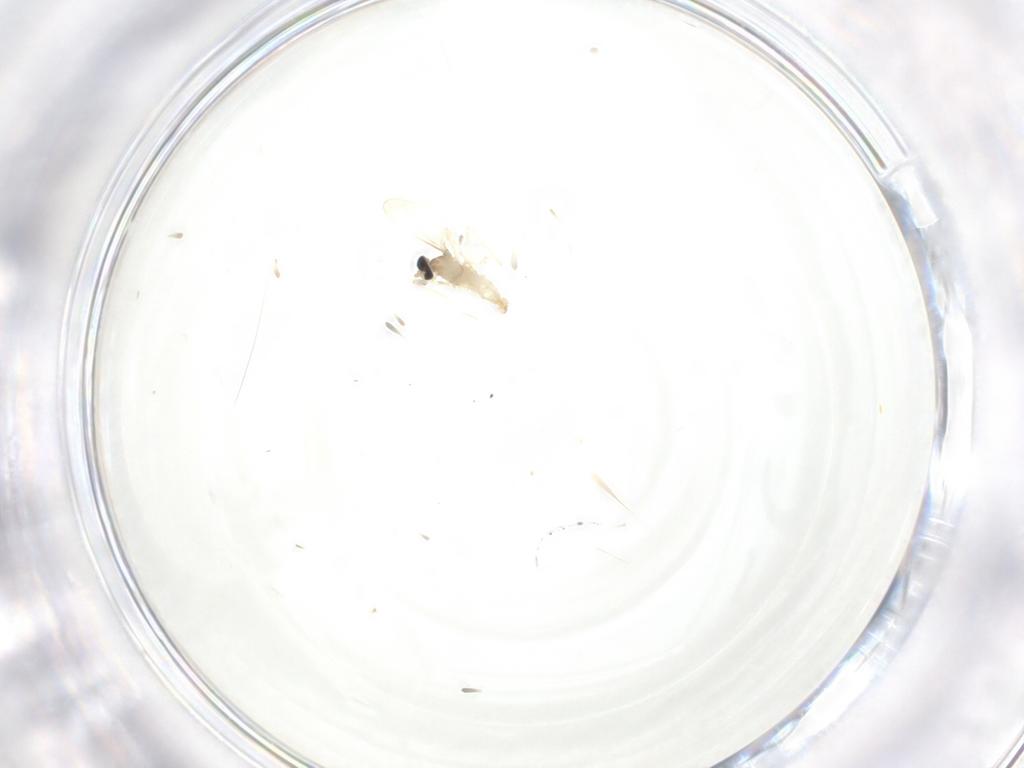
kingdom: Animalia
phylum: Arthropoda
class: Insecta
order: Diptera
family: Cecidomyiidae
